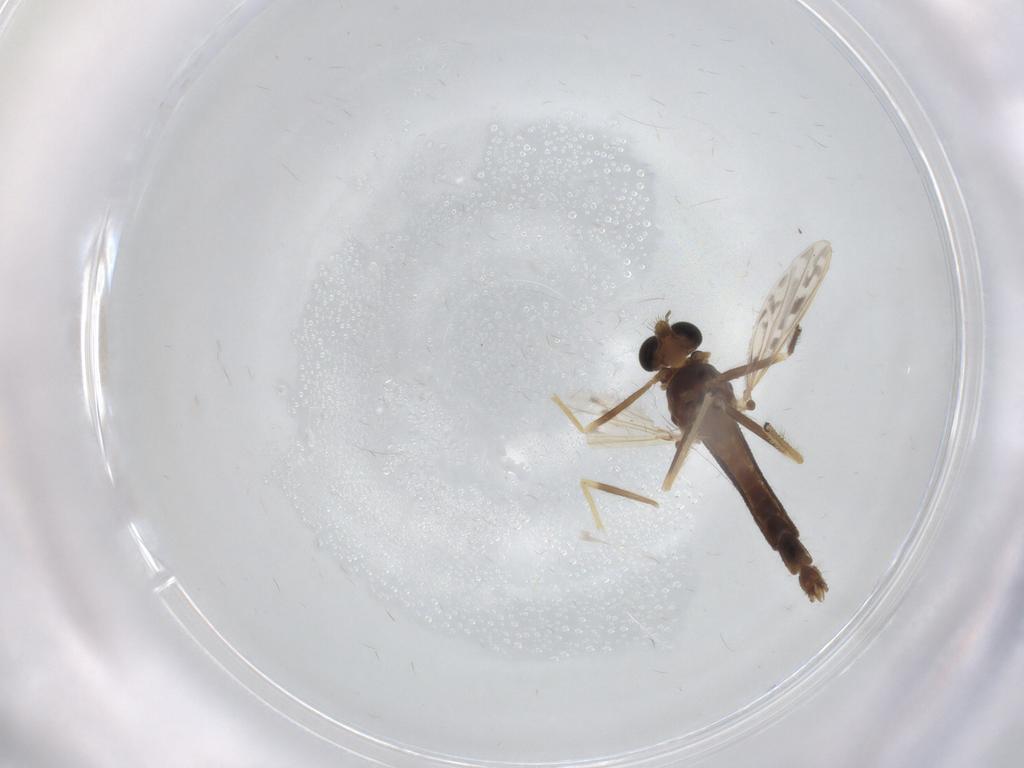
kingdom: Animalia
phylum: Arthropoda
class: Insecta
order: Diptera
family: Chironomidae
